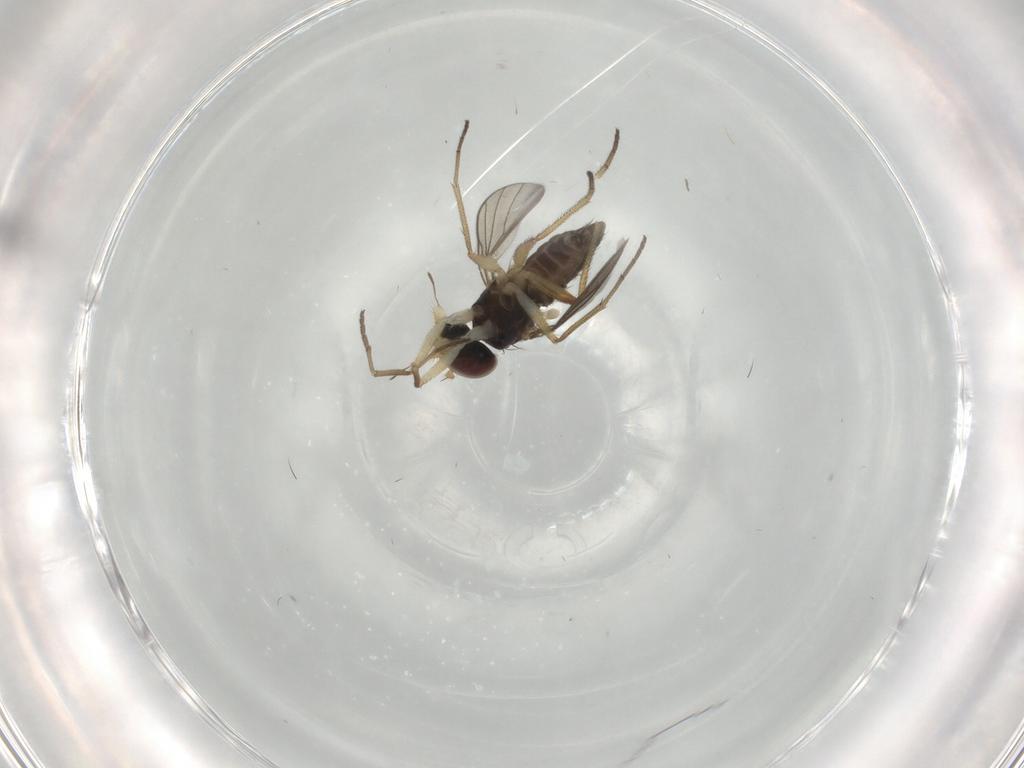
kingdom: Animalia
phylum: Arthropoda
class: Insecta
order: Diptera
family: Dolichopodidae
